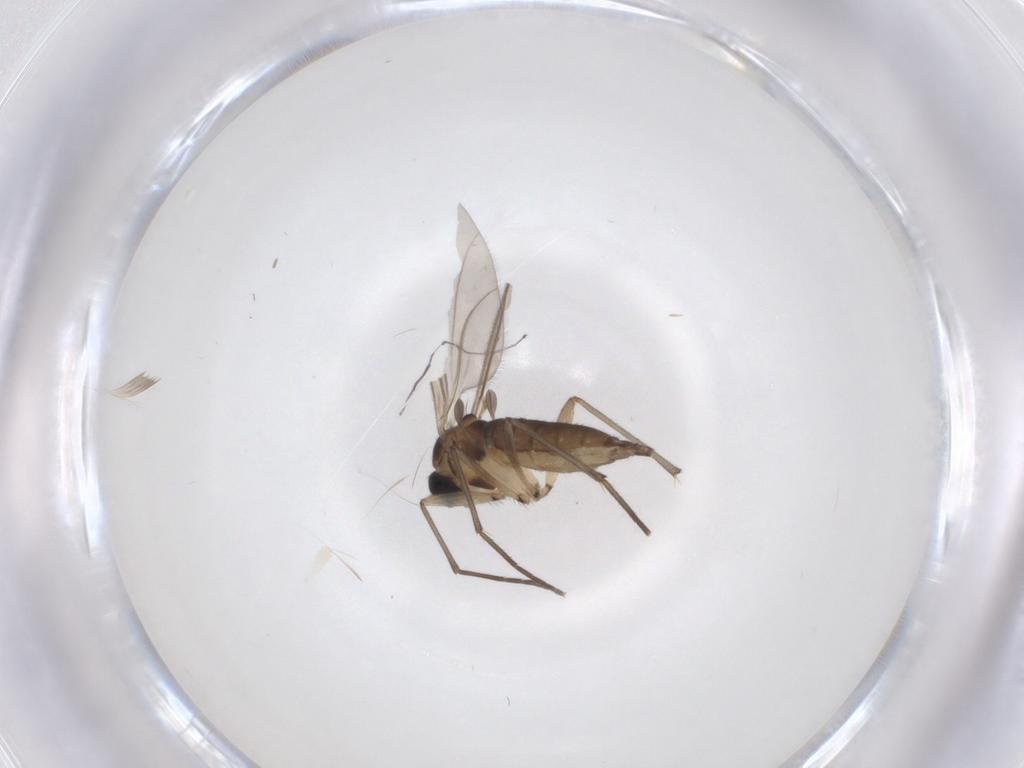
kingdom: Animalia
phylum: Arthropoda
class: Insecta
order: Diptera
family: Sciaridae
